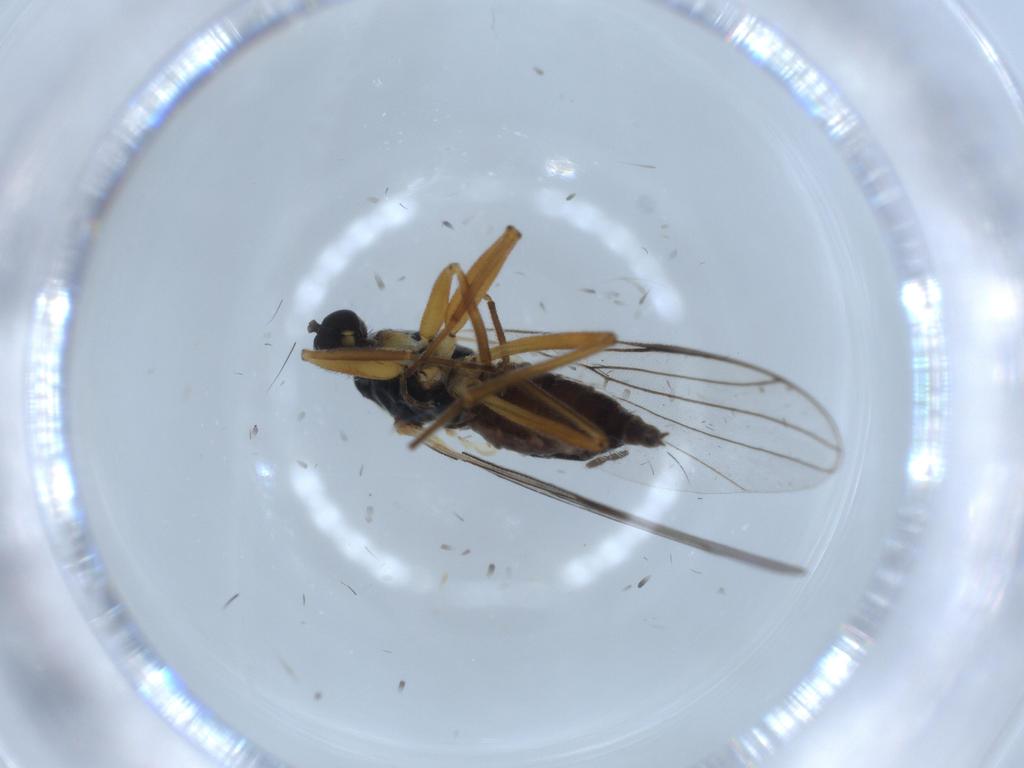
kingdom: Animalia
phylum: Arthropoda
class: Insecta
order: Diptera
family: Hybotidae
